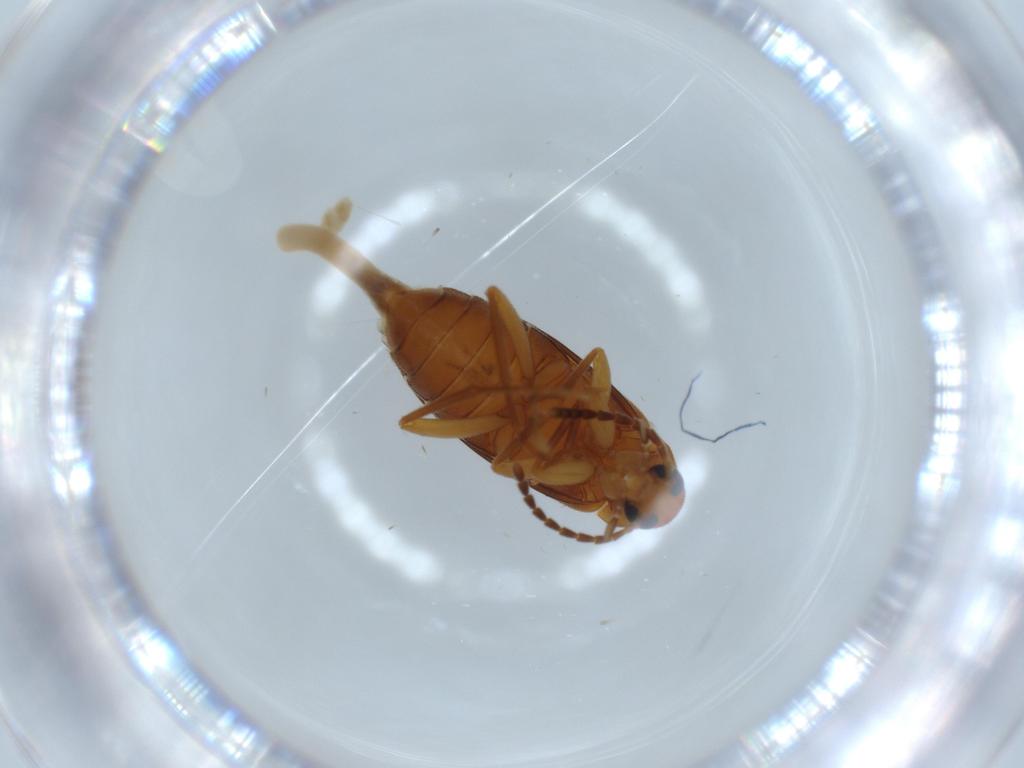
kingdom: Animalia
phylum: Arthropoda
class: Insecta
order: Coleoptera
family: Scraptiidae
